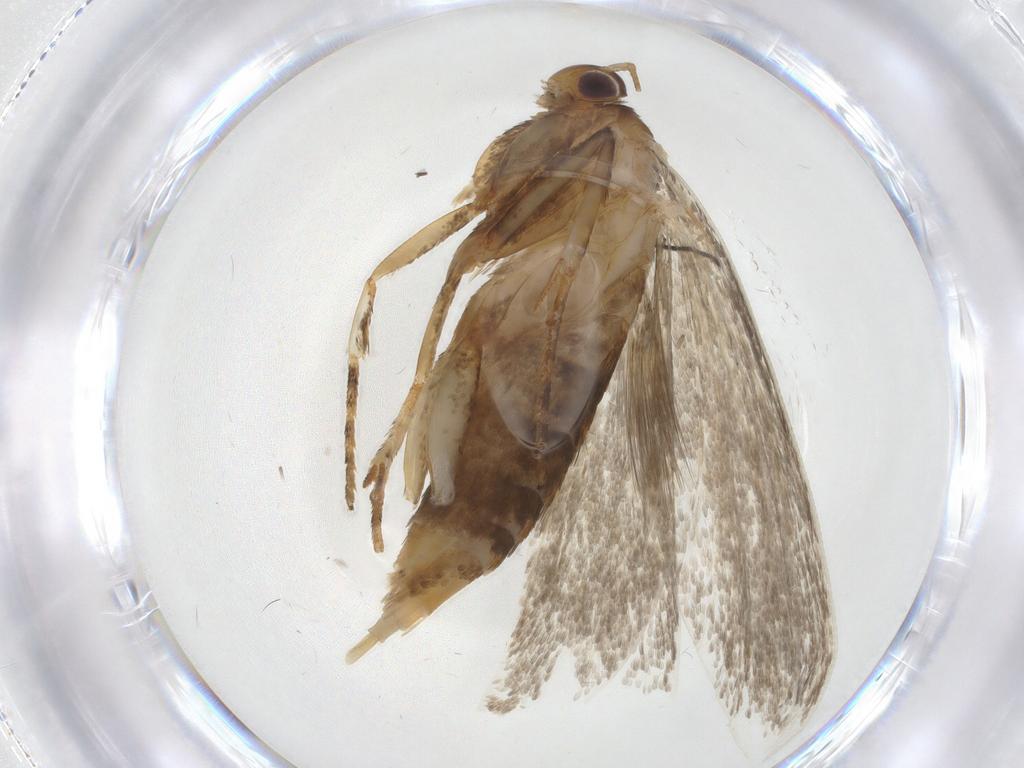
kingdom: Animalia
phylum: Arthropoda
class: Insecta
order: Lepidoptera
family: Oecophoridae
